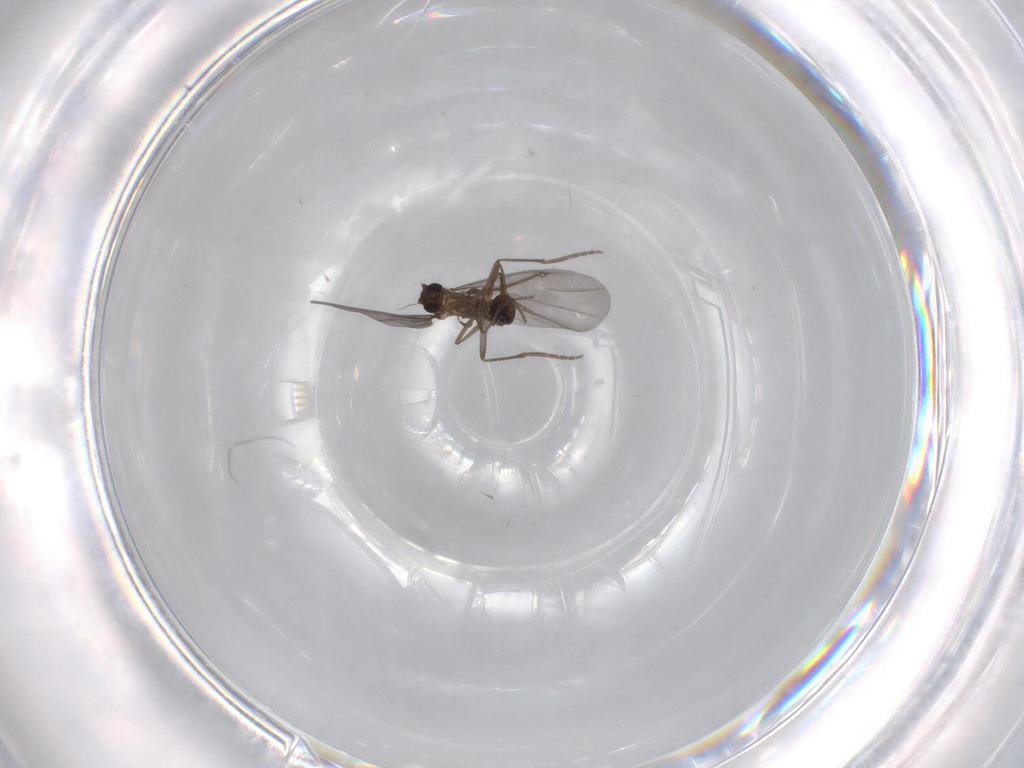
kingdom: Animalia
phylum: Arthropoda
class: Insecta
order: Diptera
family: Phoridae
